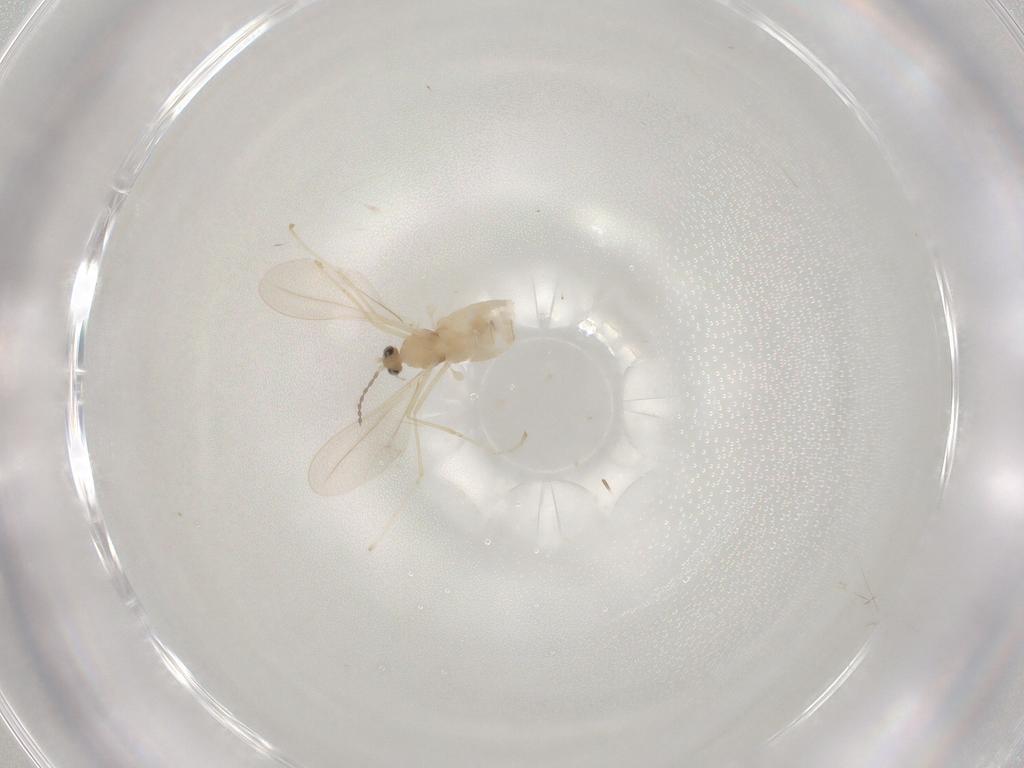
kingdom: Animalia
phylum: Arthropoda
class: Insecta
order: Diptera
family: Cecidomyiidae
